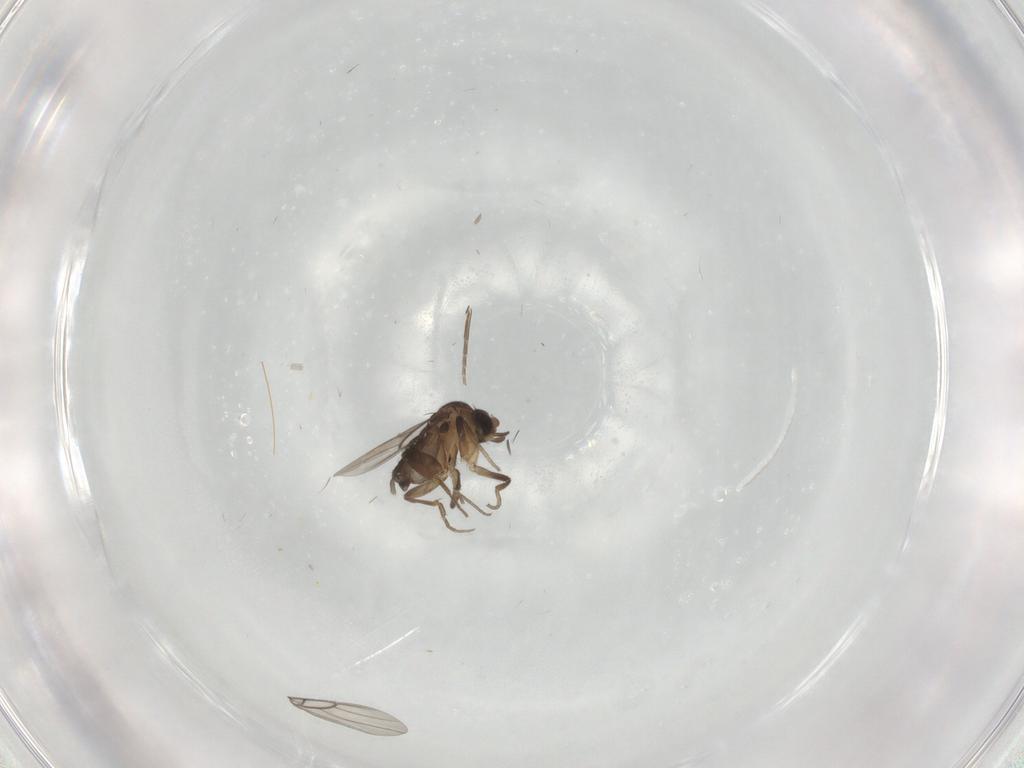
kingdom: Animalia
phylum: Arthropoda
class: Insecta
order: Diptera
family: Phoridae
